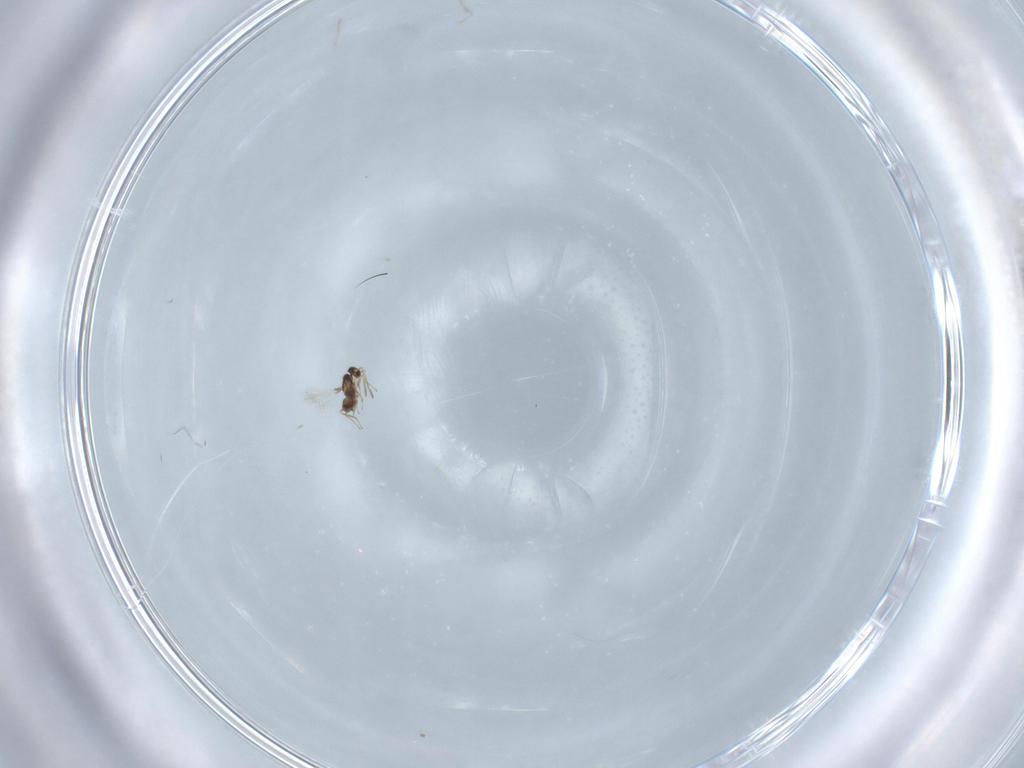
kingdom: Animalia
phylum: Arthropoda
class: Insecta
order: Hymenoptera
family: Mymaridae
